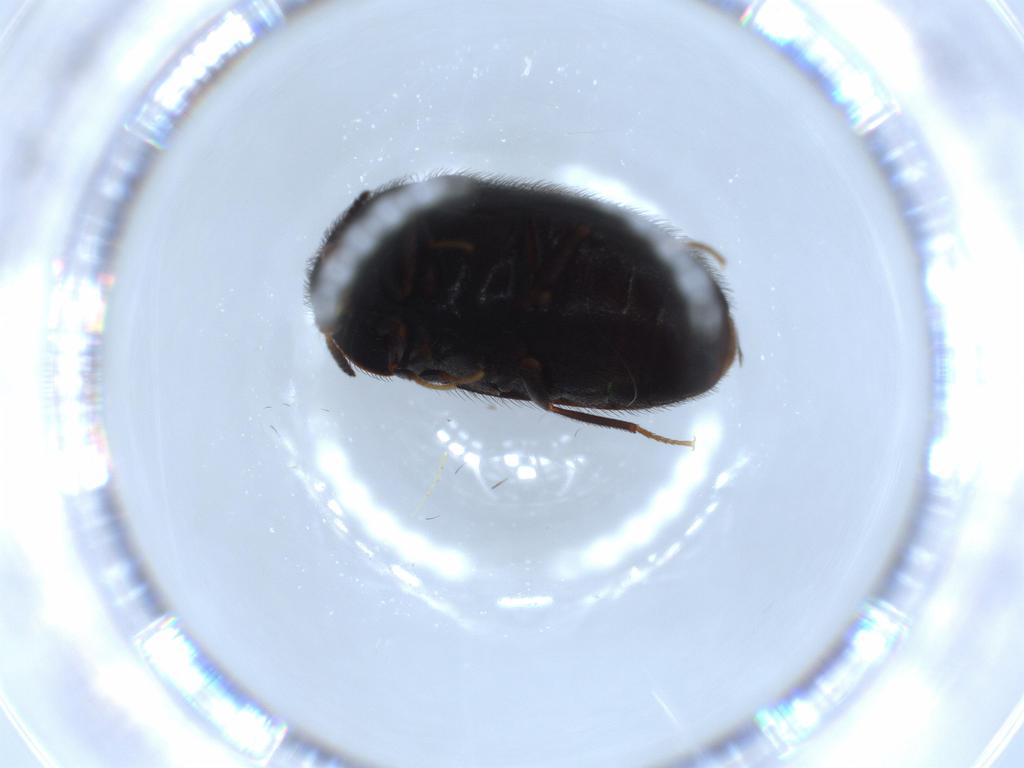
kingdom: Animalia
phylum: Arthropoda
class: Insecta
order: Coleoptera
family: Dermestidae
